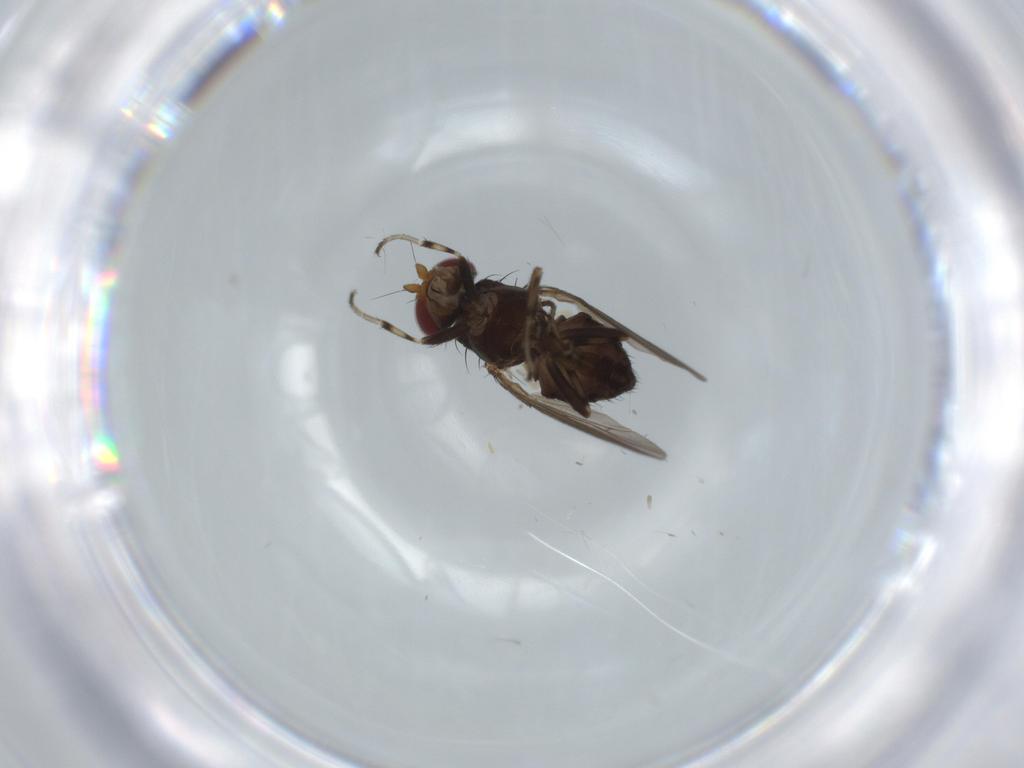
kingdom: Animalia
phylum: Arthropoda
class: Insecta
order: Diptera
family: Heleomyzidae
